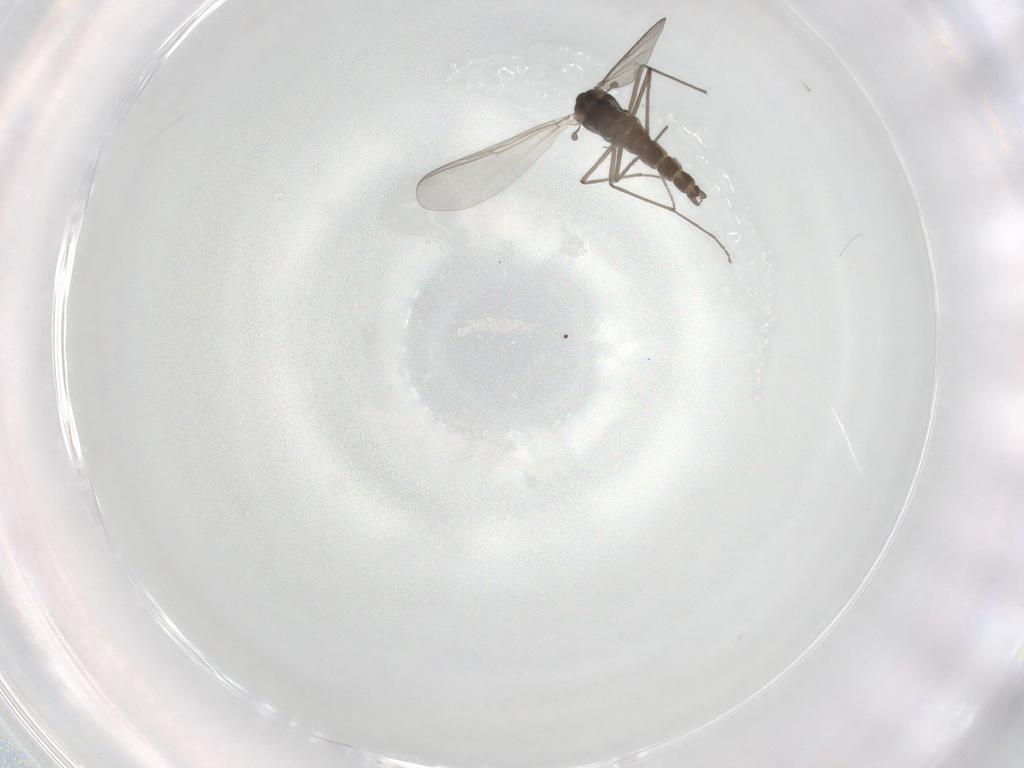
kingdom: Animalia
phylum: Arthropoda
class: Insecta
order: Diptera
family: Chironomidae
